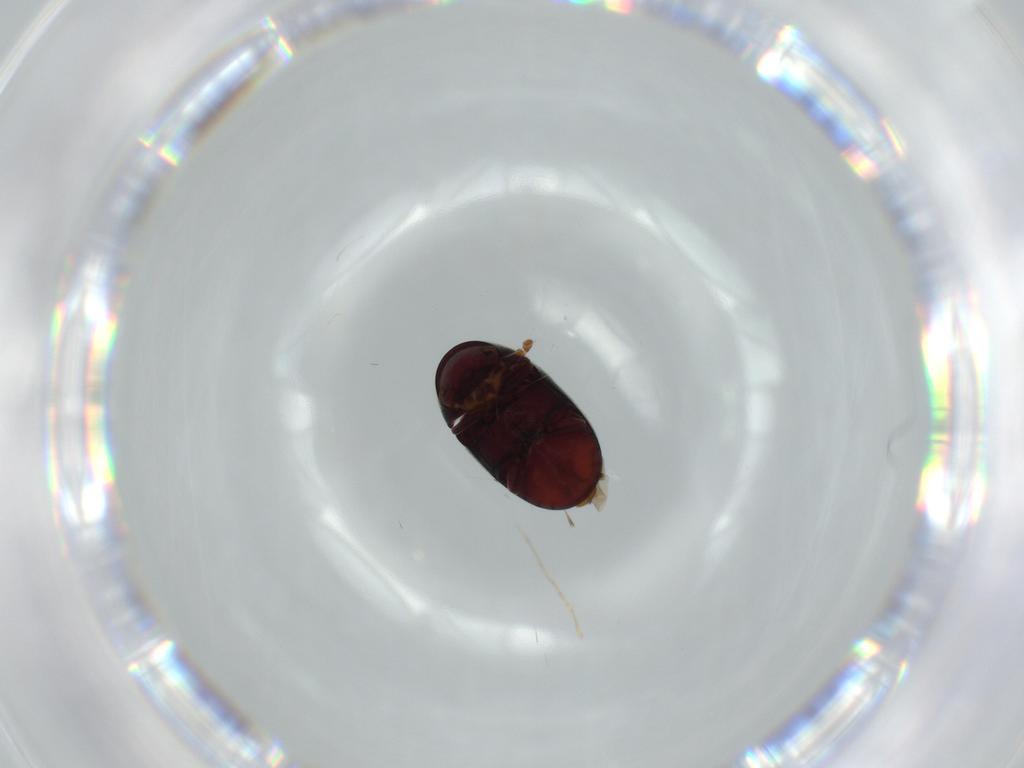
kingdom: Animalia
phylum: Arthropoda
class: Insecta
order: Coleoptera
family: Ptinidae
